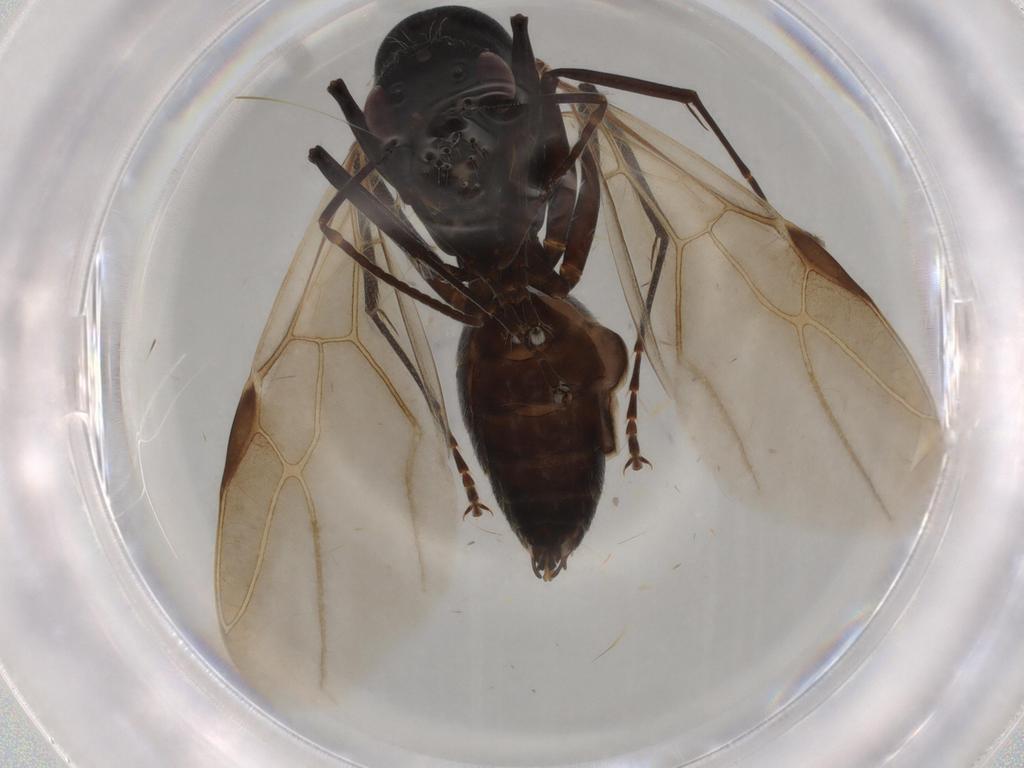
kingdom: Animalia
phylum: Arthropoda
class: Insecta
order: Hymenoptera
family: Formicidae
